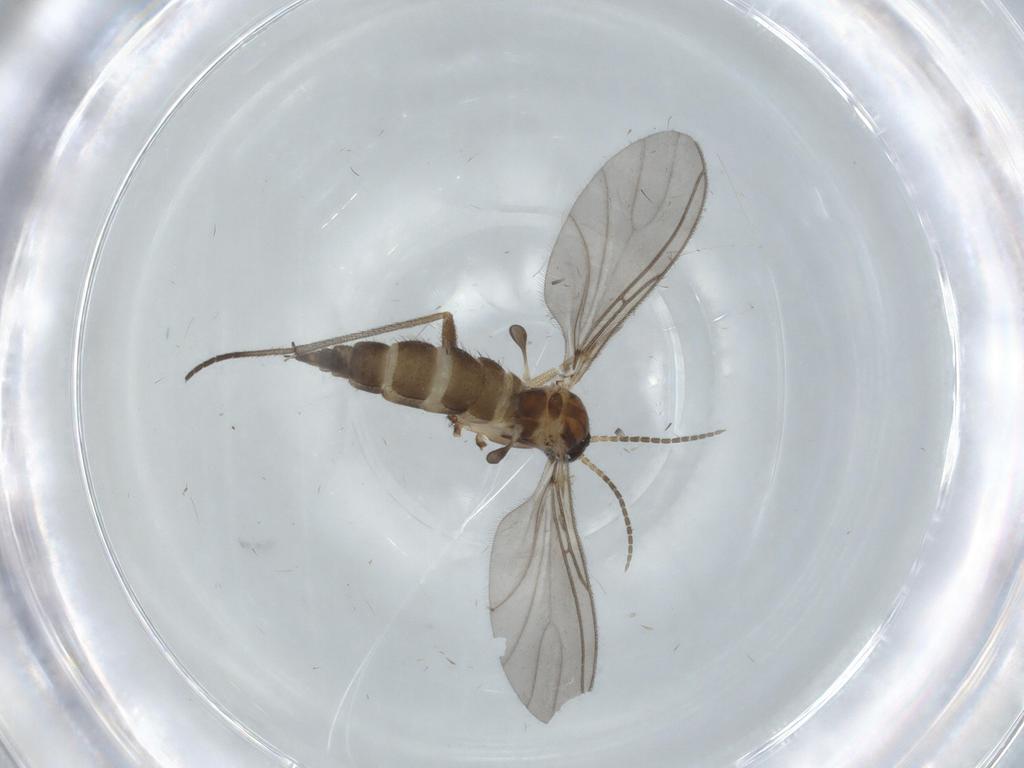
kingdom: Animalia
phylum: Arthropoda
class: Insecta
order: Diptera
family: Sciaridae
